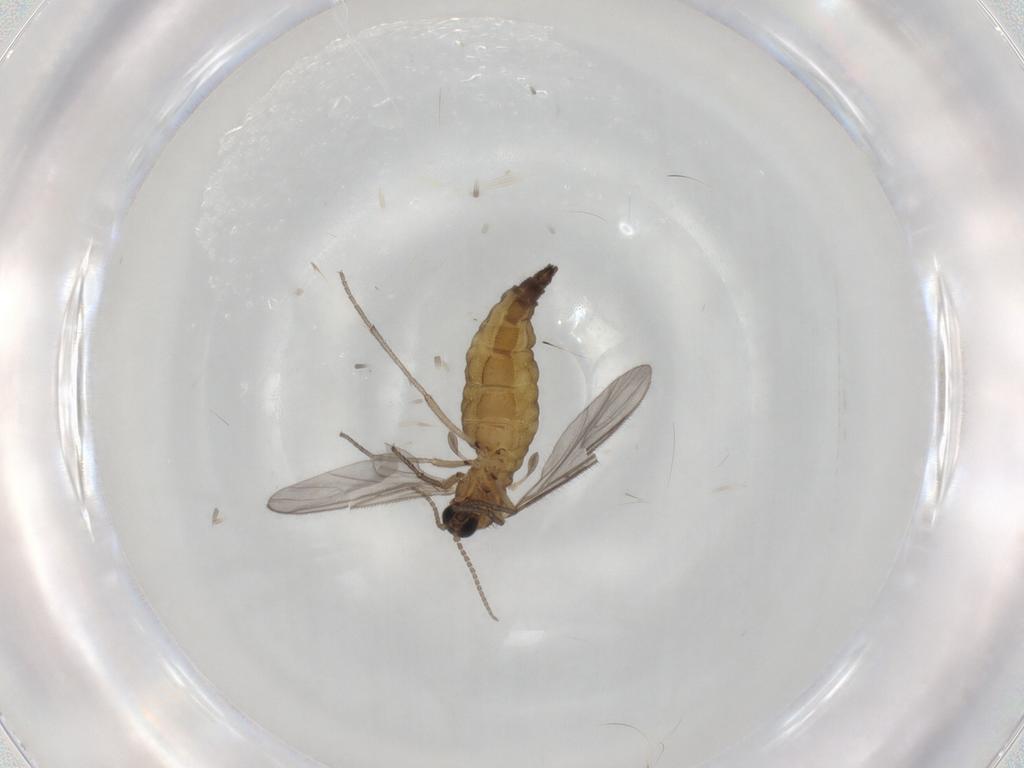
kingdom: Animalia
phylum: Arthropoda
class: Insecta
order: Diptera
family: Sciaridae
